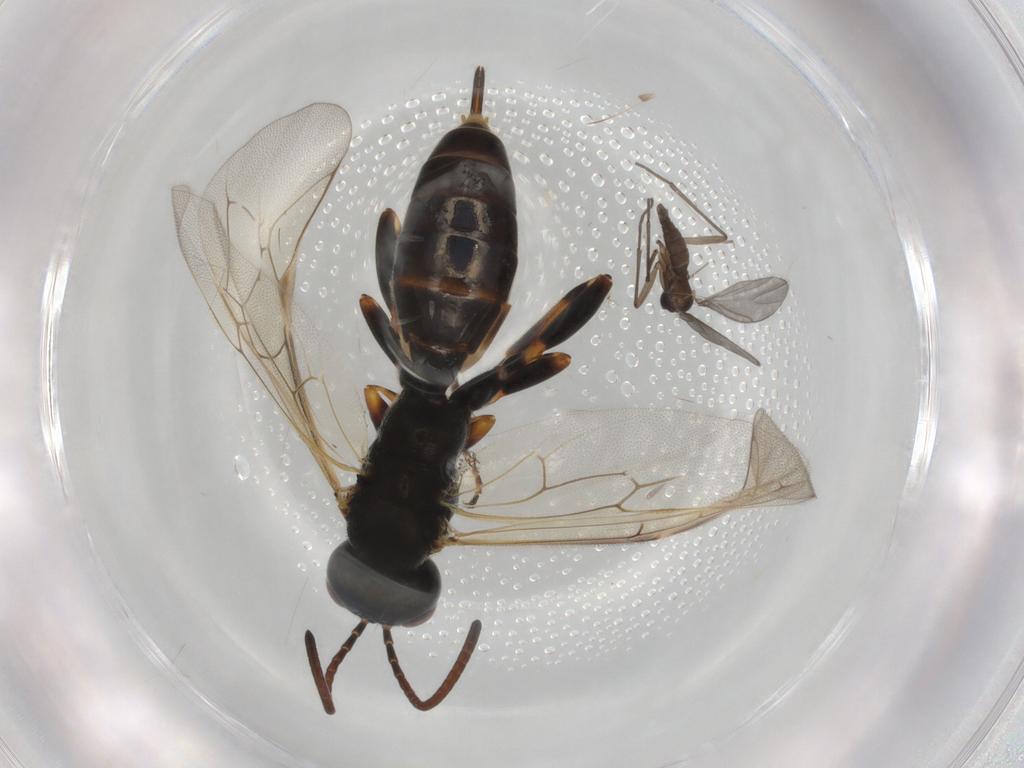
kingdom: Animalia
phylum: Arthropoda
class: Insecta
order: Hymenoptera
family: Ichneumonidae
